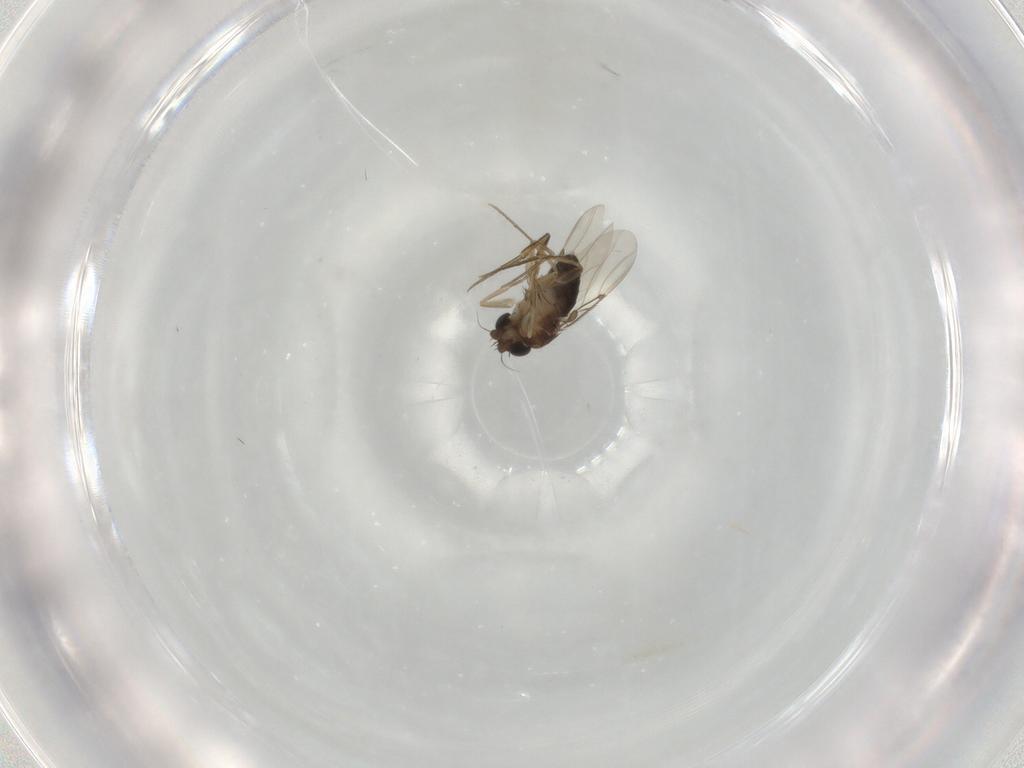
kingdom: Animalia
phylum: Arthropoda
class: Insecta
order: Diptera
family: Phoridae
